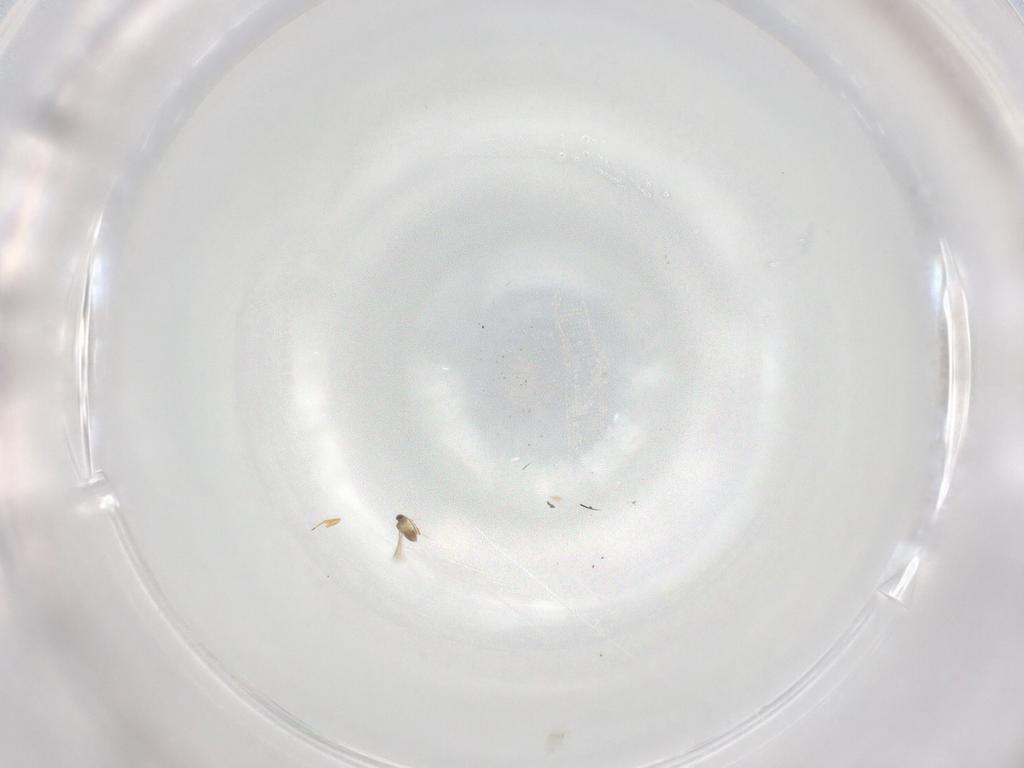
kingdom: Animalia
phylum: Arthropoda
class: Insecta
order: Hymenoptera
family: Scelionidae
